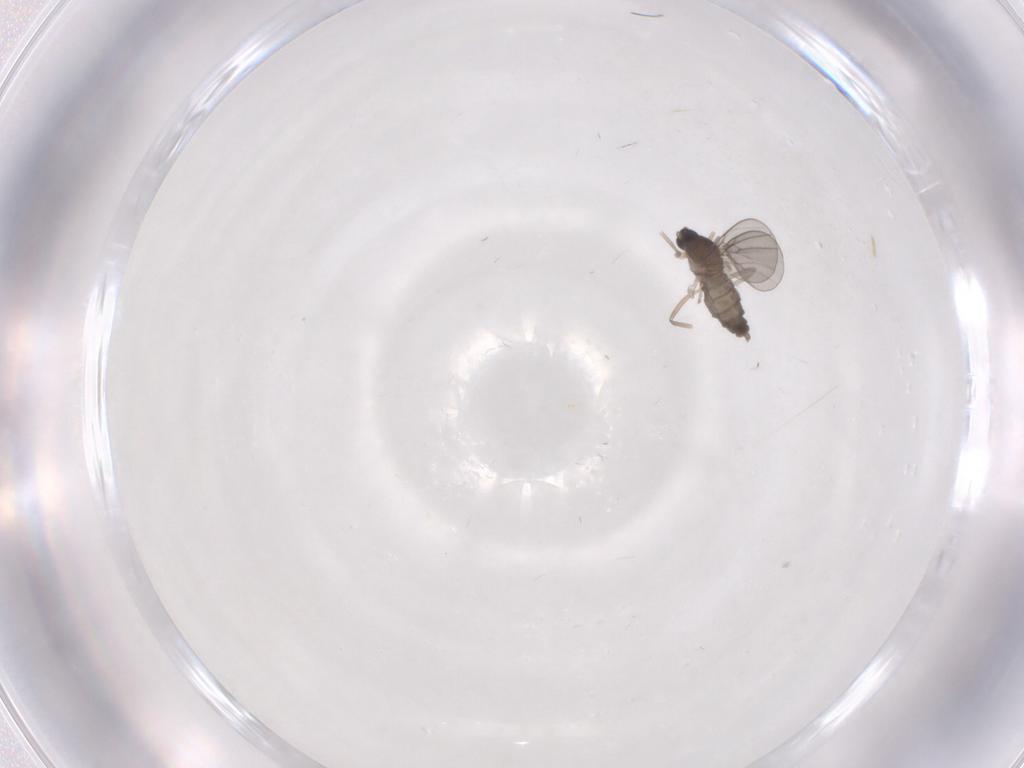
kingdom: Animalia
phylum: Arthropoda
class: Insecta
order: Diptera
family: Cecidomyiidae
